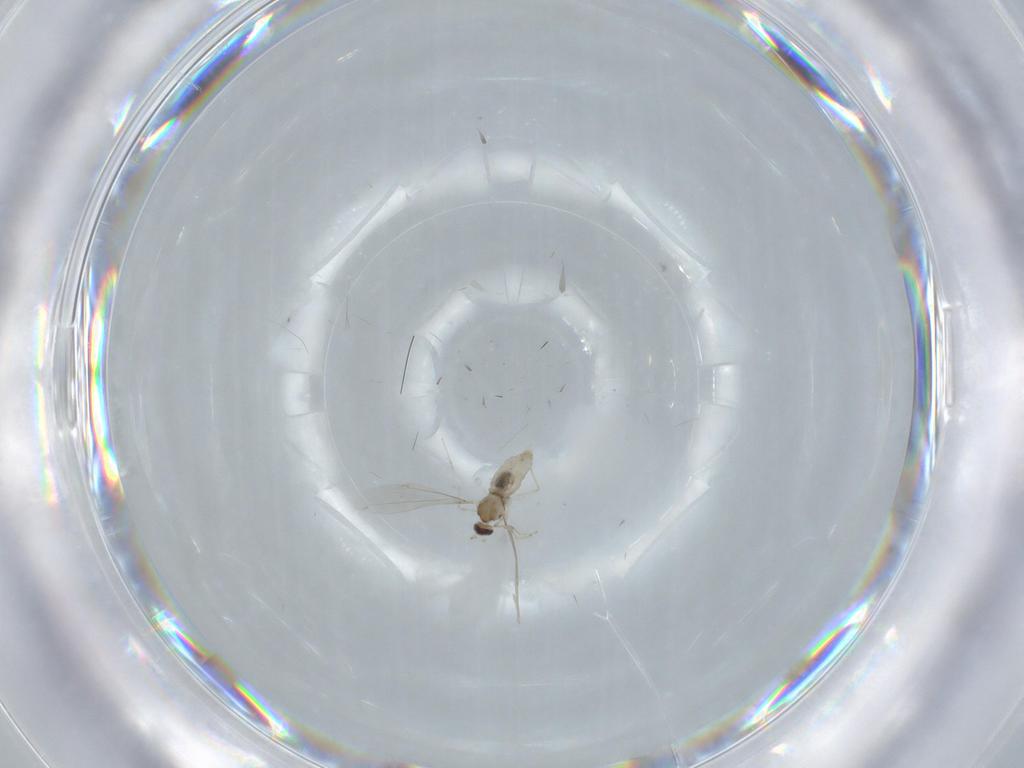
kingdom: Animalia
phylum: Arthropoda
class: Insecta
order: Diptera
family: Cecidomyiidae
